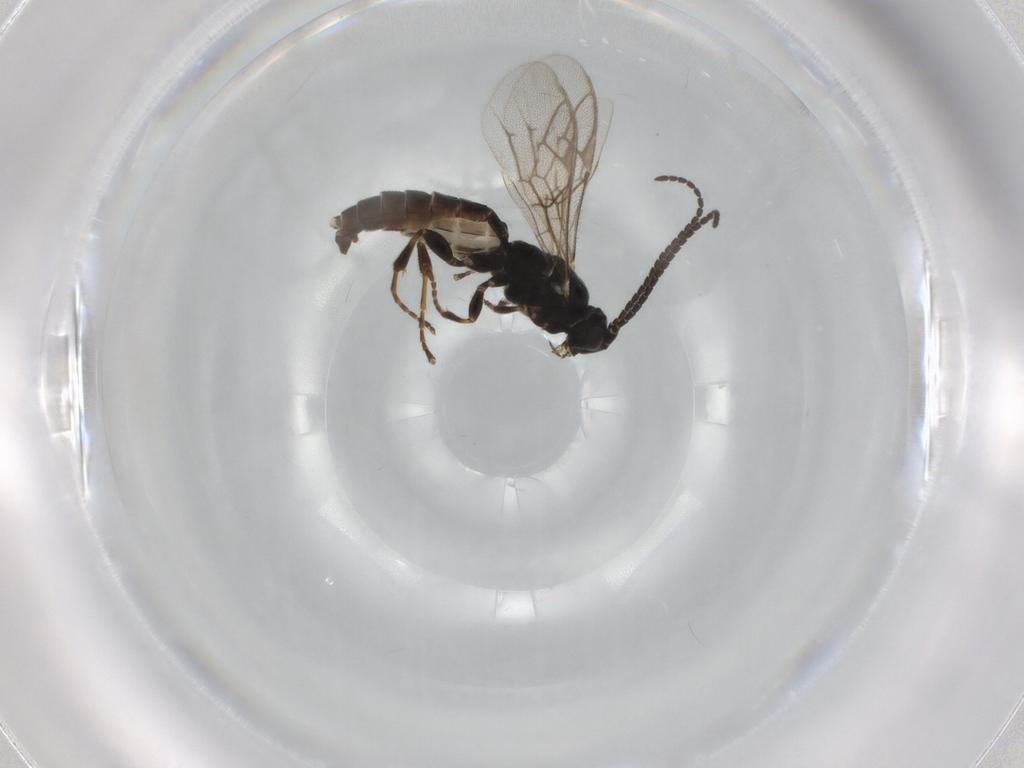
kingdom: Animalia
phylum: Arthropoda
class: Insecta
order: Hymenoptera
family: Ichneumonidae
